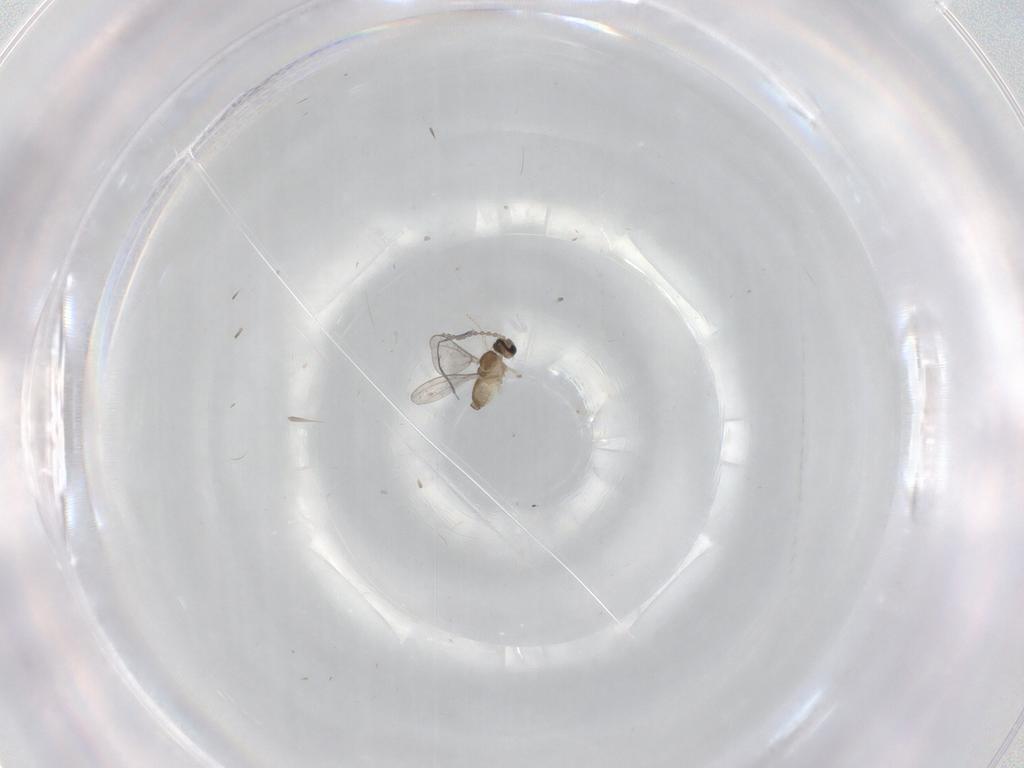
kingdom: Animalia
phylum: Arthropoda
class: Insecta
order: Diptera
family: Cecidomyiidae
